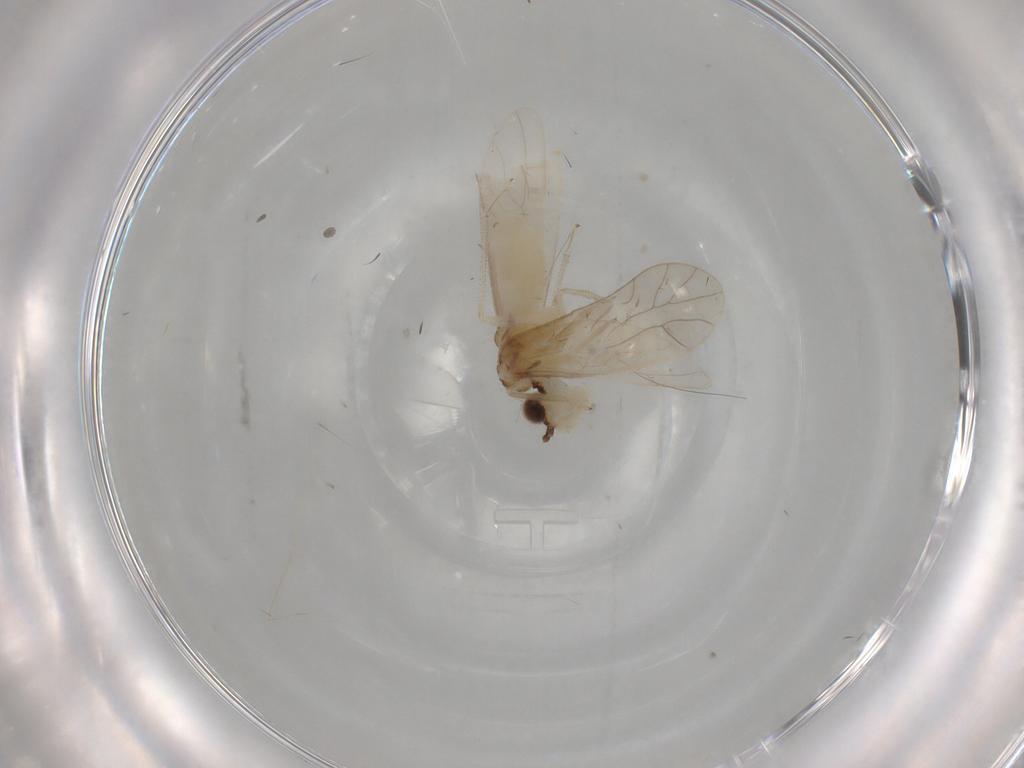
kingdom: Animalia
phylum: Arthropoda
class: Insecta
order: Psocodea
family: Caeciliusidae
